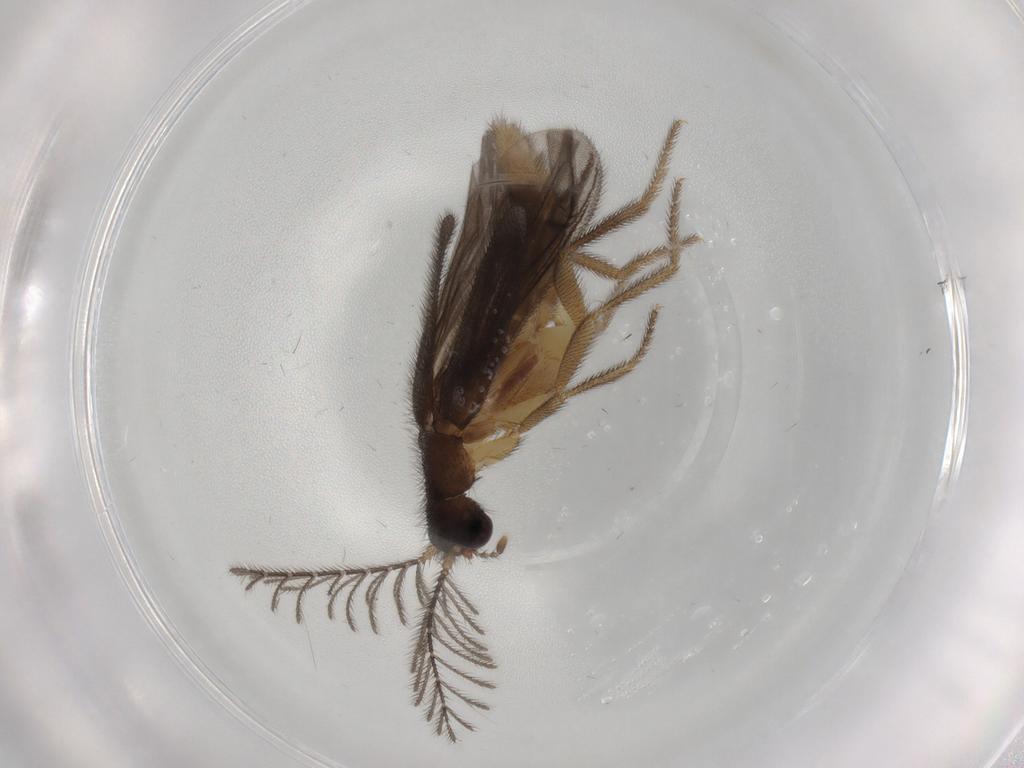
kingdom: Animalia
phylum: Arthropoda
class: Insecta
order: Coleoptera
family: Phengodidae
